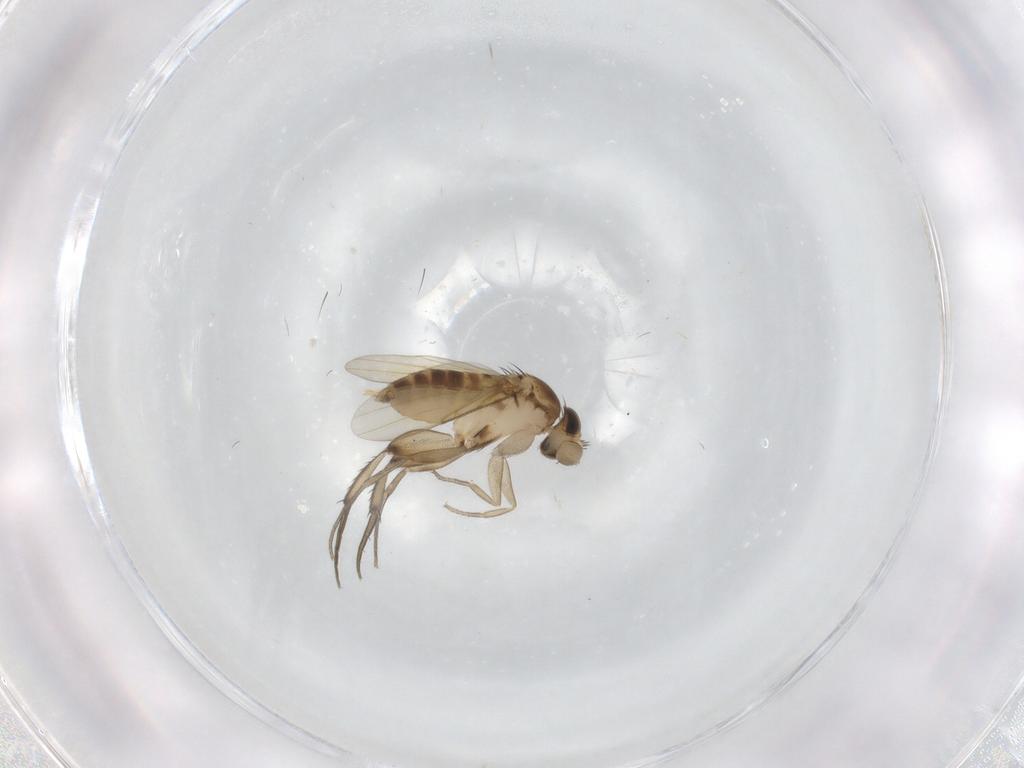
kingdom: Animalia
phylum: Arthropoda
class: Insecta
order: Diptera
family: Phoridae
